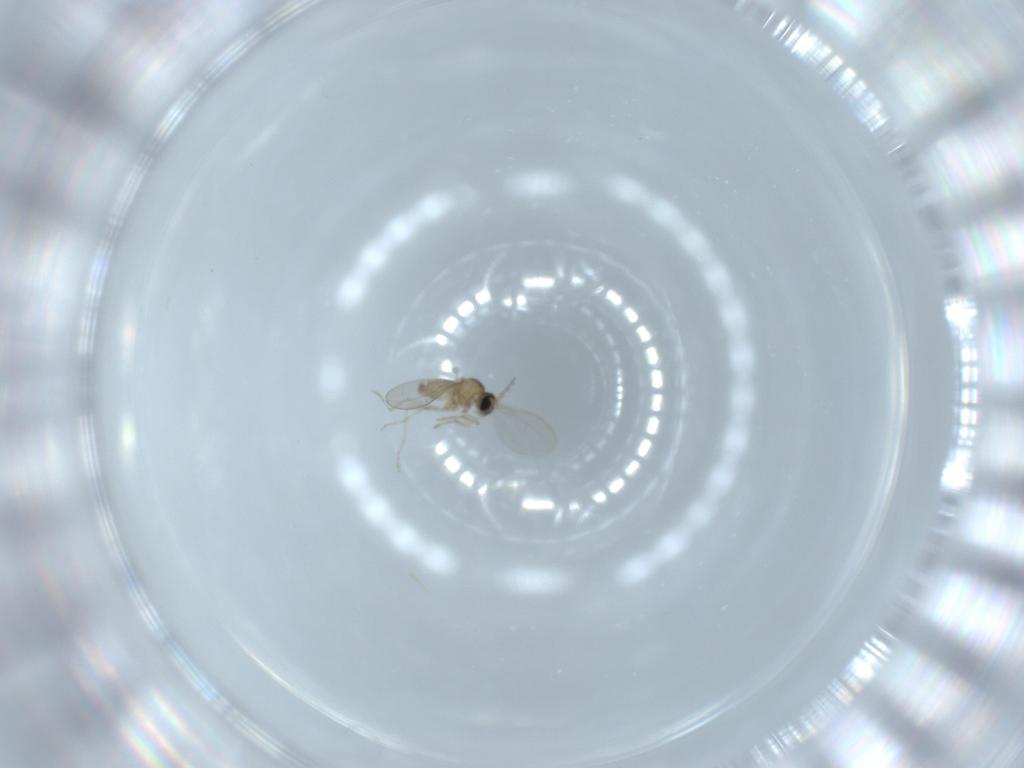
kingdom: Animalia
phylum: Arthropoda
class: Insecta
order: Diptera
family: Cecidomyiidae
